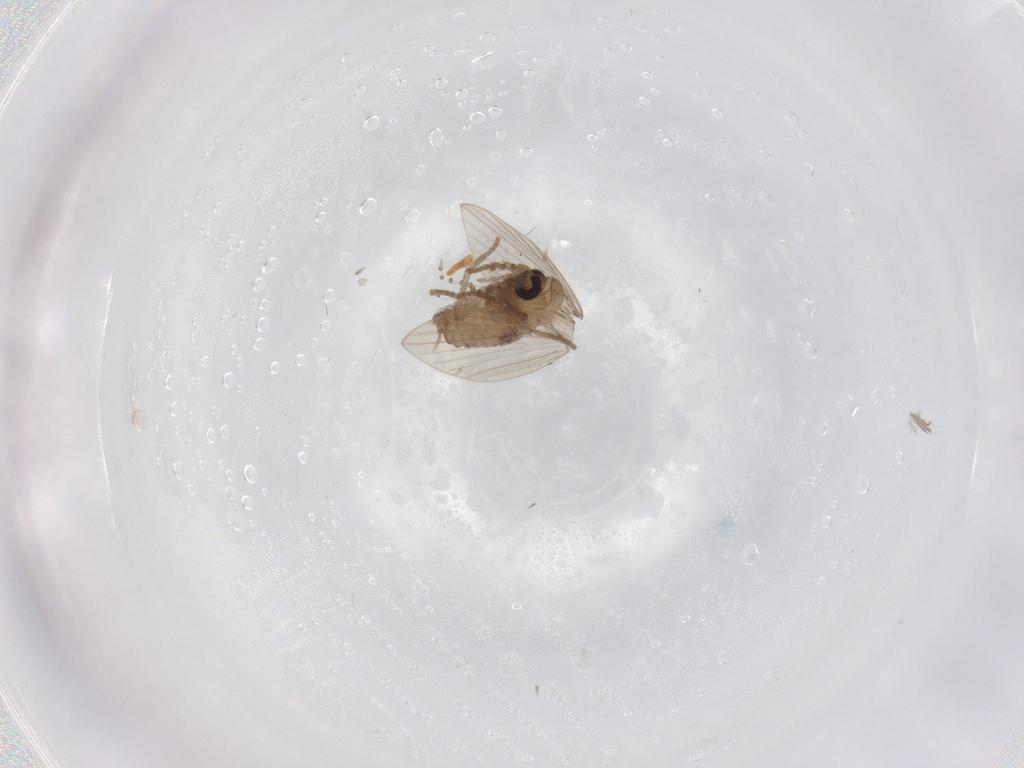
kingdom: Animalia
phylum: Arthropoda
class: Insecta
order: Diptera
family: Psychodidae
